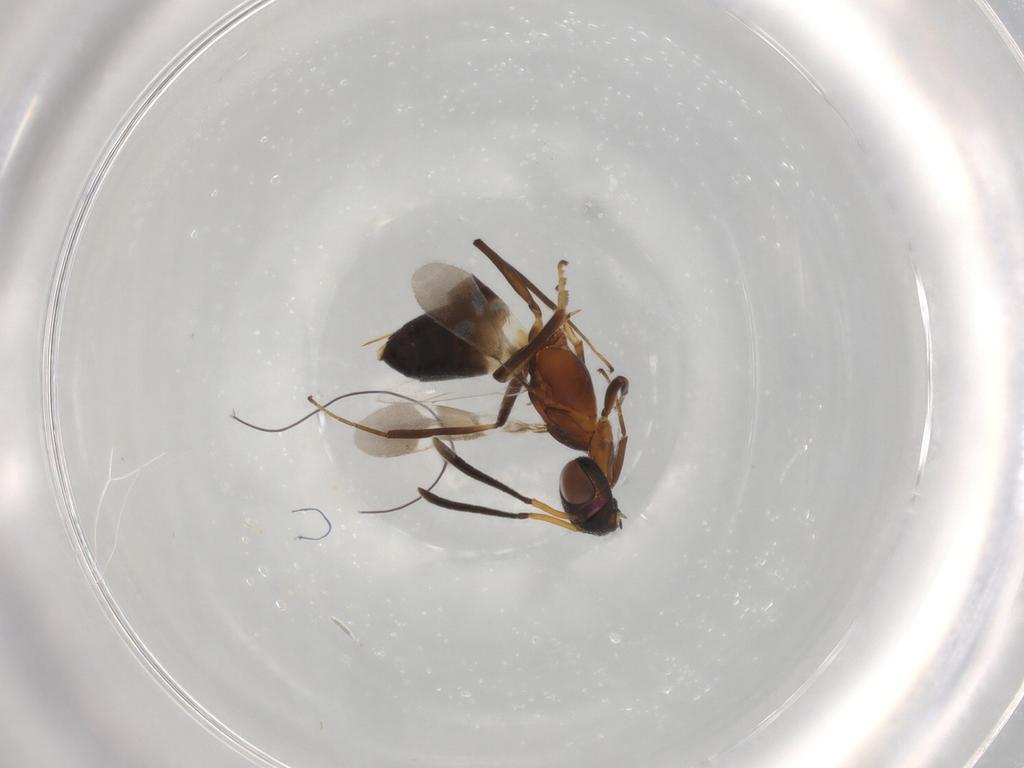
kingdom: Animalia
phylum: Arthropoda
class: Insecta
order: Hymenoptera
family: Eupelmidae
